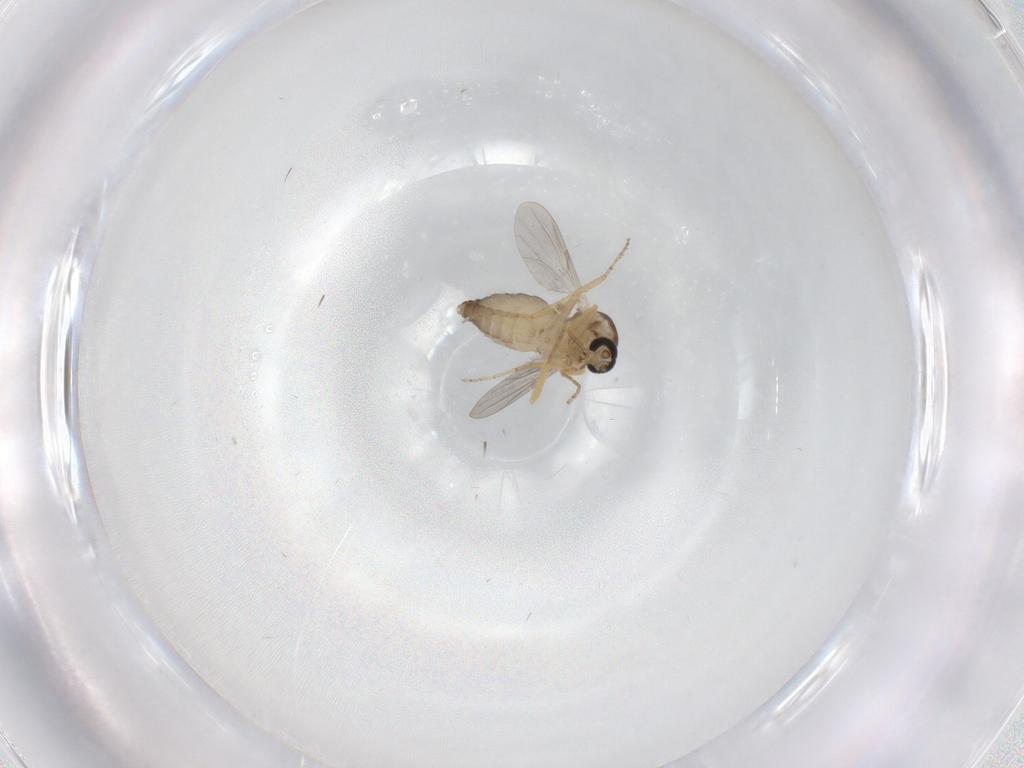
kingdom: Animalia
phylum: Arthropoda
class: Insecta
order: Diptera
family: Ceratopogonidae
